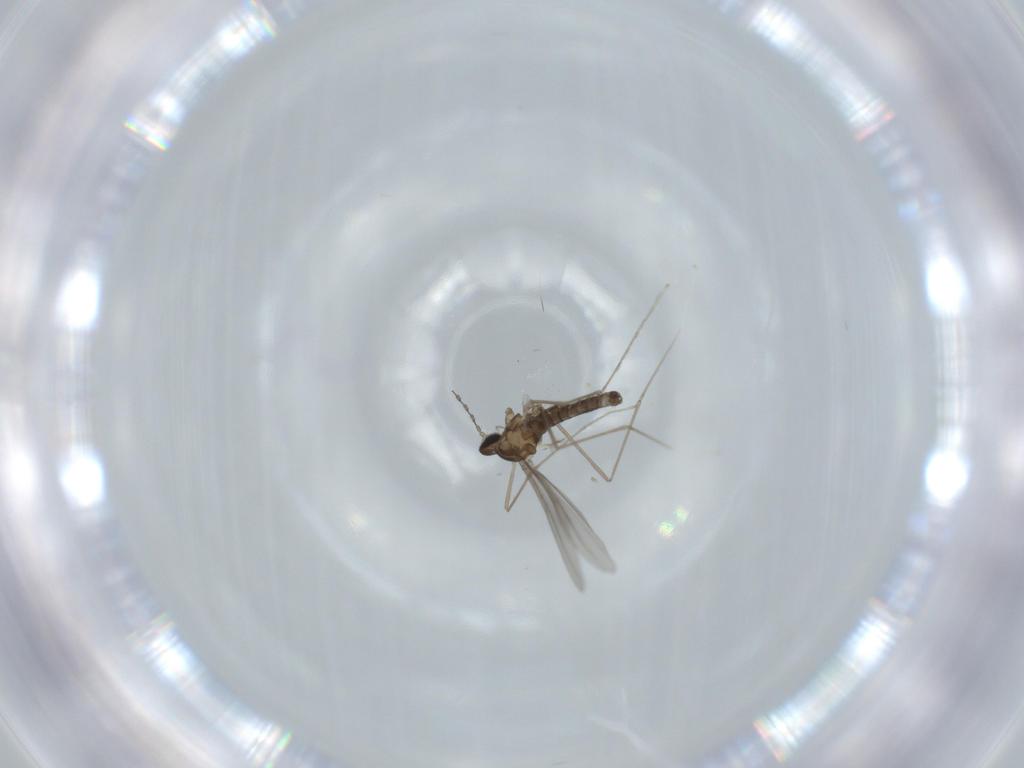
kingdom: Animalia
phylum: Arthropoda
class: Insecta
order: Diptera
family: Cecidomyiidae
